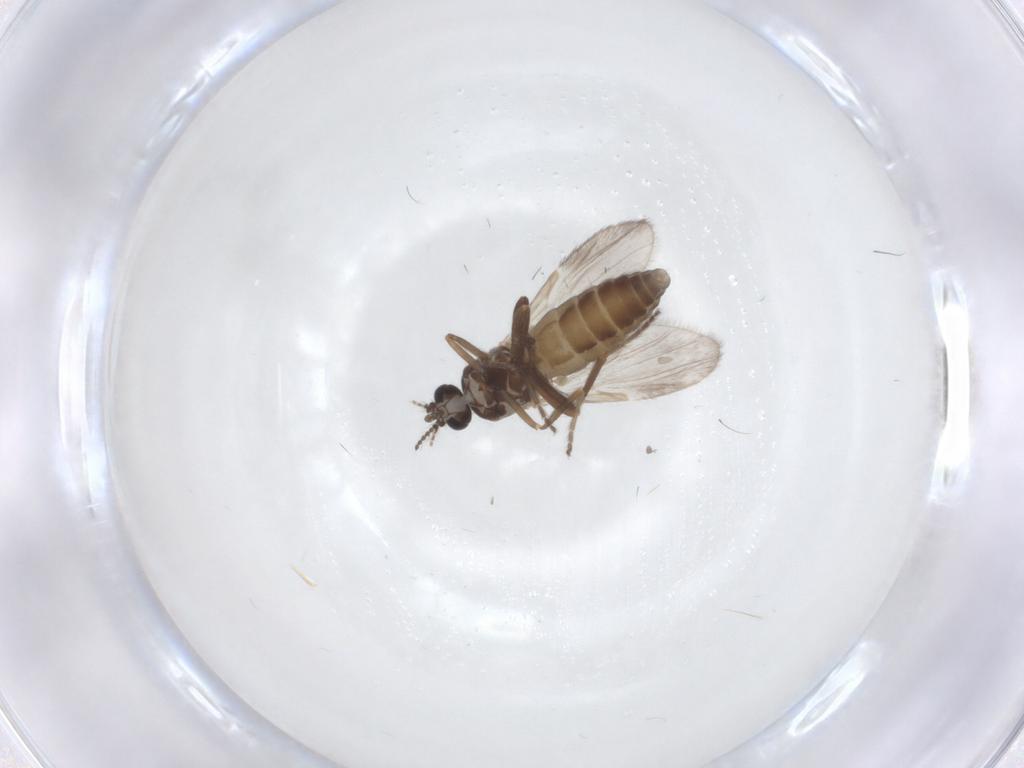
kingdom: Animalia
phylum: Arthropoda
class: Insecta
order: Diptera
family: Ceratopogonidae
